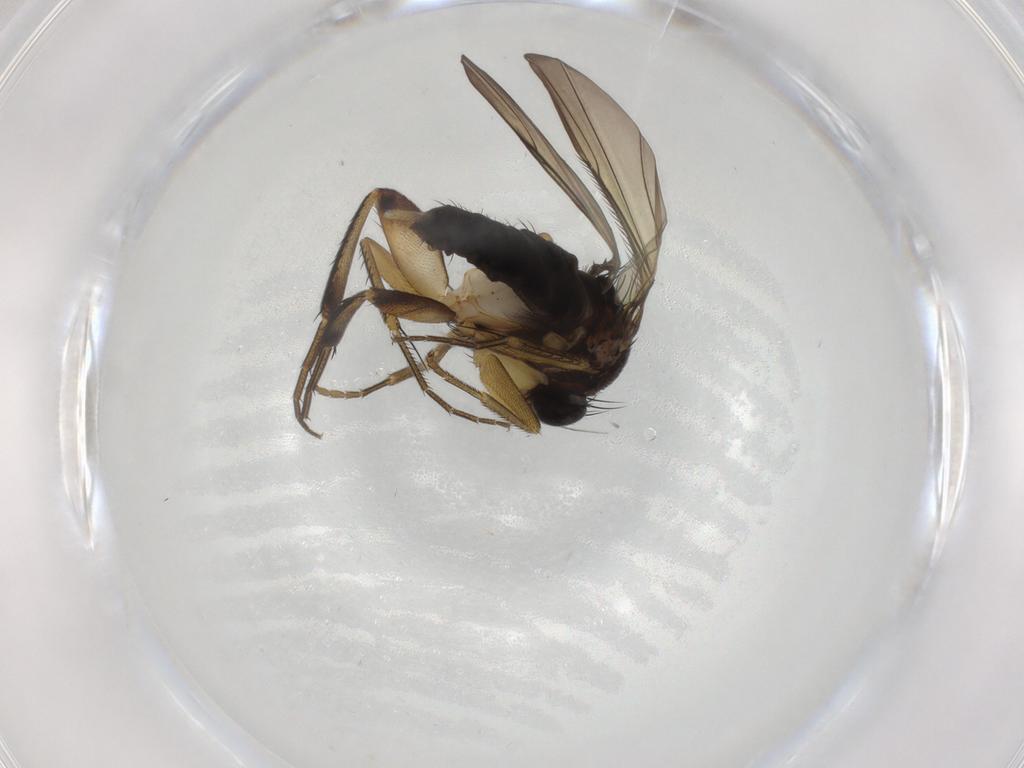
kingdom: Animalia
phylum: Arthropoda
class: Insecta
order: Diptera
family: Phoridae
